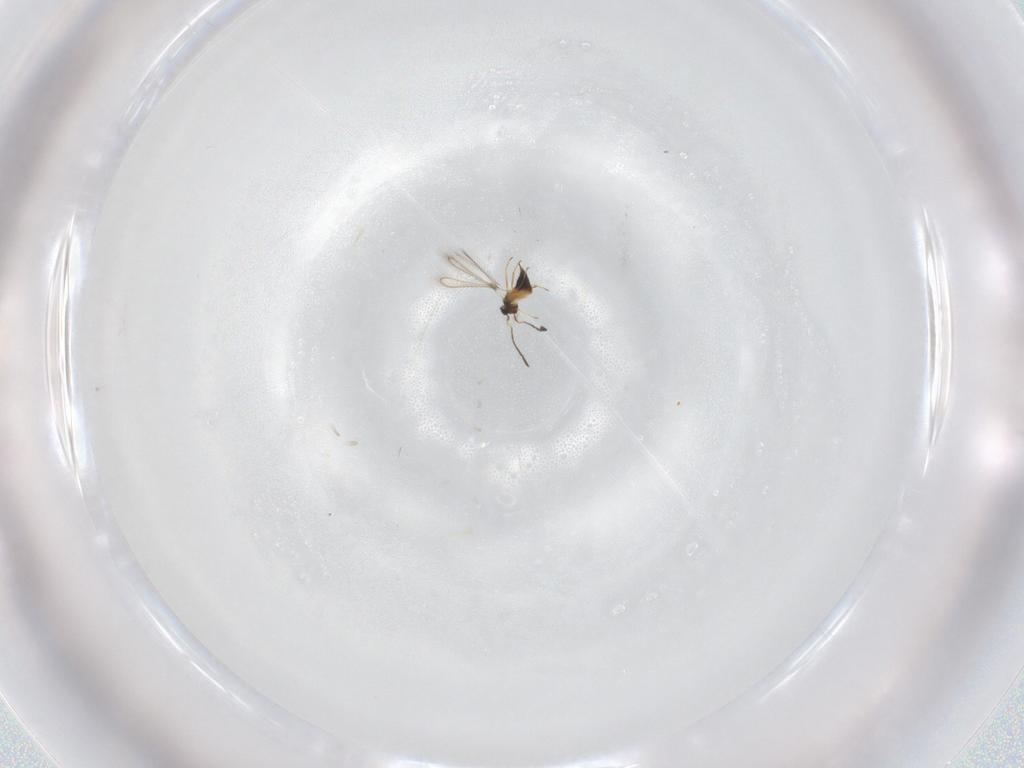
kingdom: Animalia
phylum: Arthropoda
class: Insecta
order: Hymenoptera
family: Mymaridae
